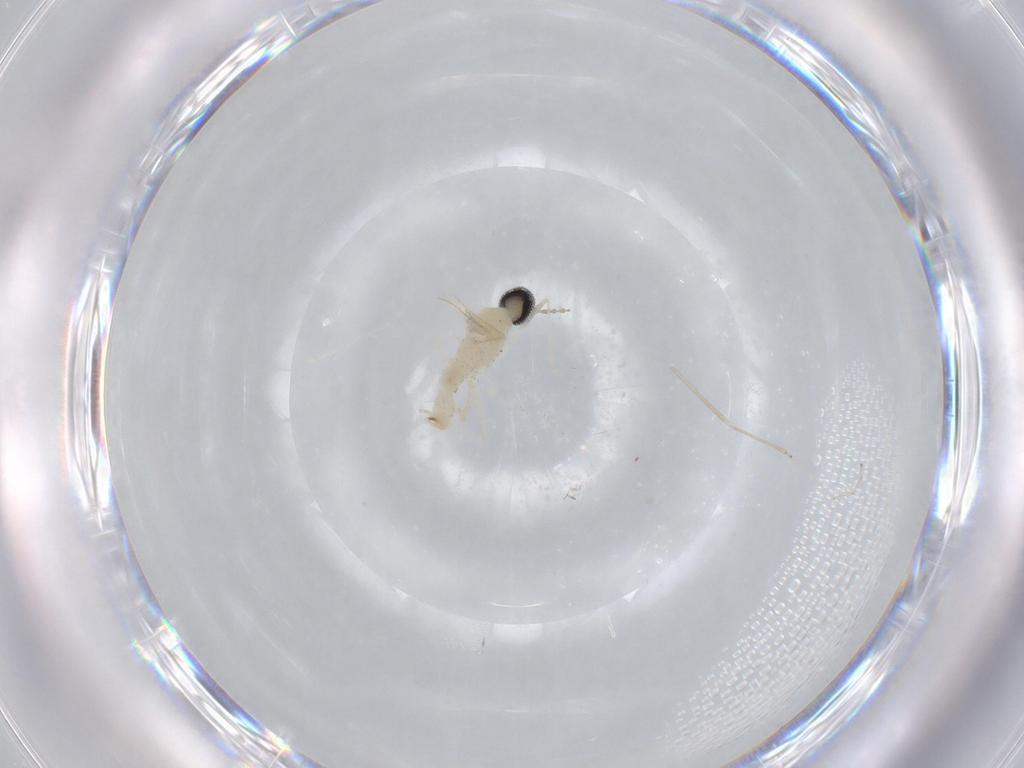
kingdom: Animalia
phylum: Arthropoda
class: Insecta
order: Diptera
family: Cecidomyiidae
